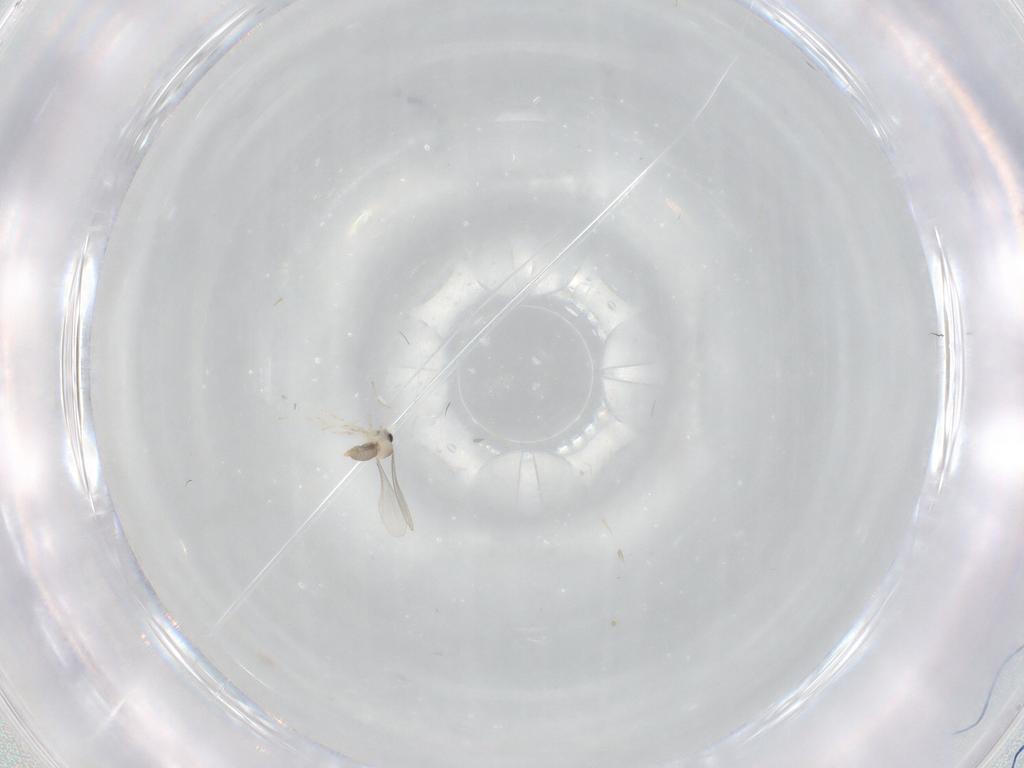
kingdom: Animalia
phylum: Arthropoda
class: Insecta
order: Diptera
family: Cecidomyiidae
